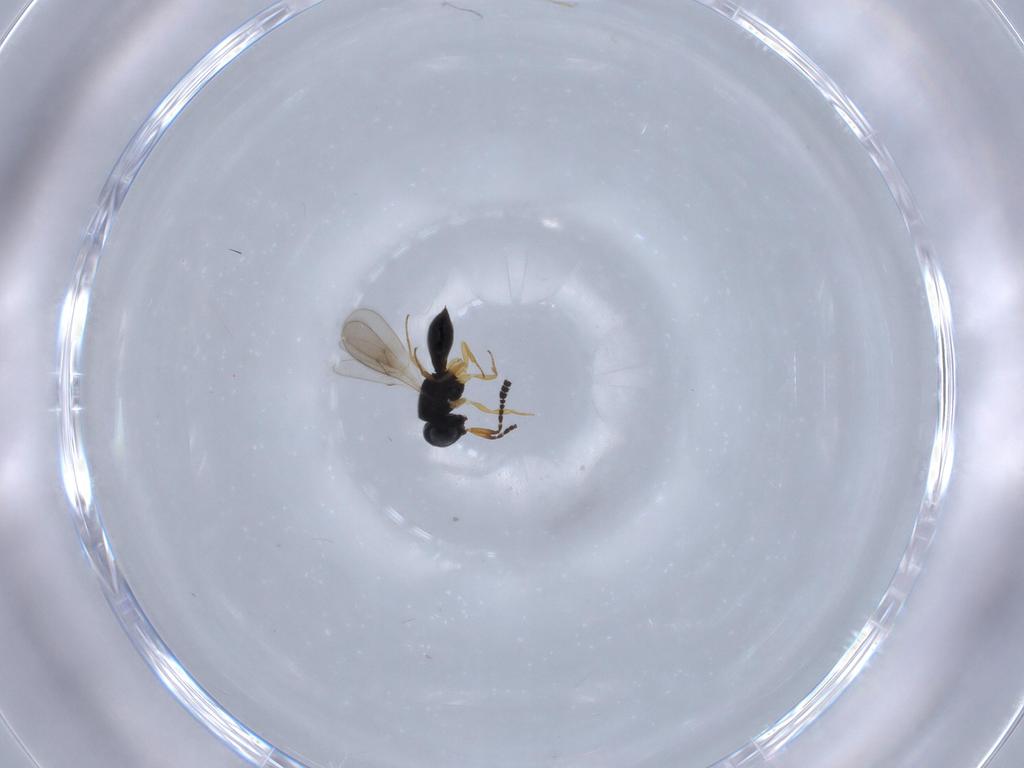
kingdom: Animalia
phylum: Arthropoda
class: Insecta
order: Hymenoptera
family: Scelionidae
